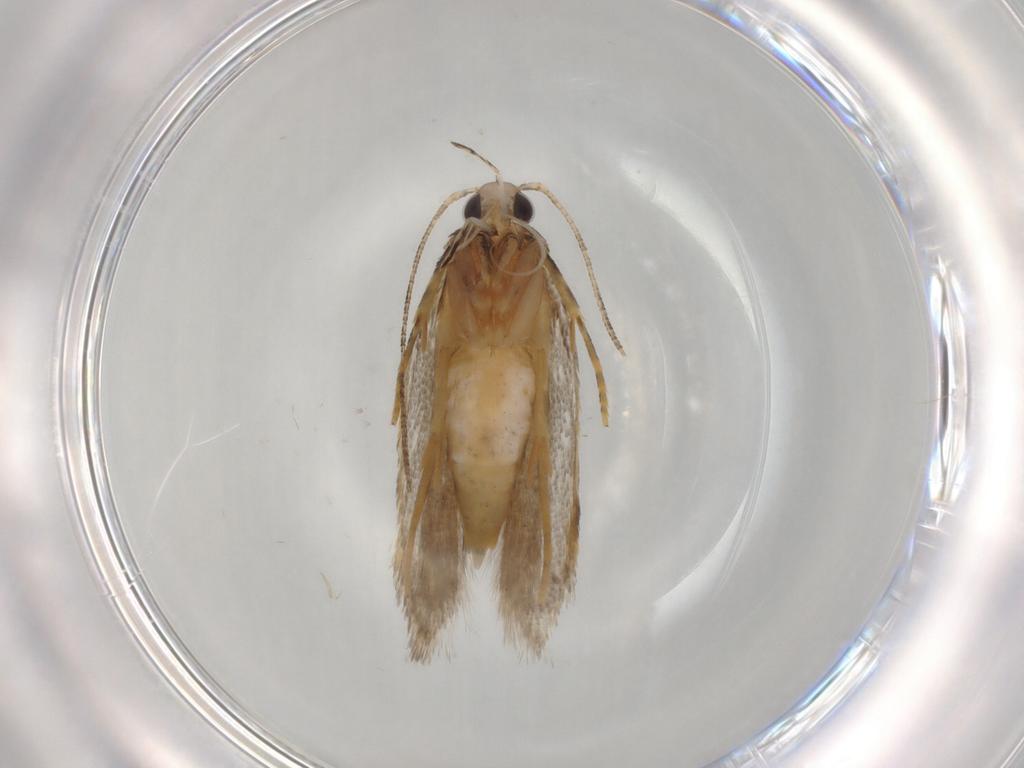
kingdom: Animalia
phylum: Arthropoda
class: Insecta
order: Lepidoptera
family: Autostichidae
